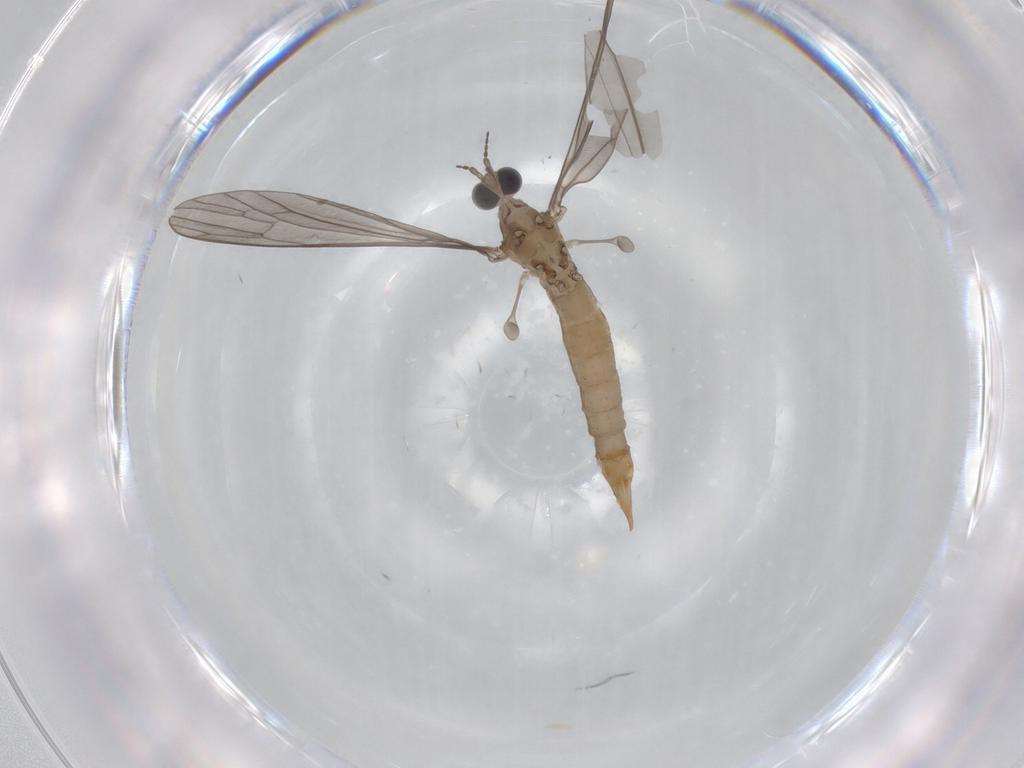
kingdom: Animalia
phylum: Arthropoda
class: Insecta
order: Diptera
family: Limoniidae
